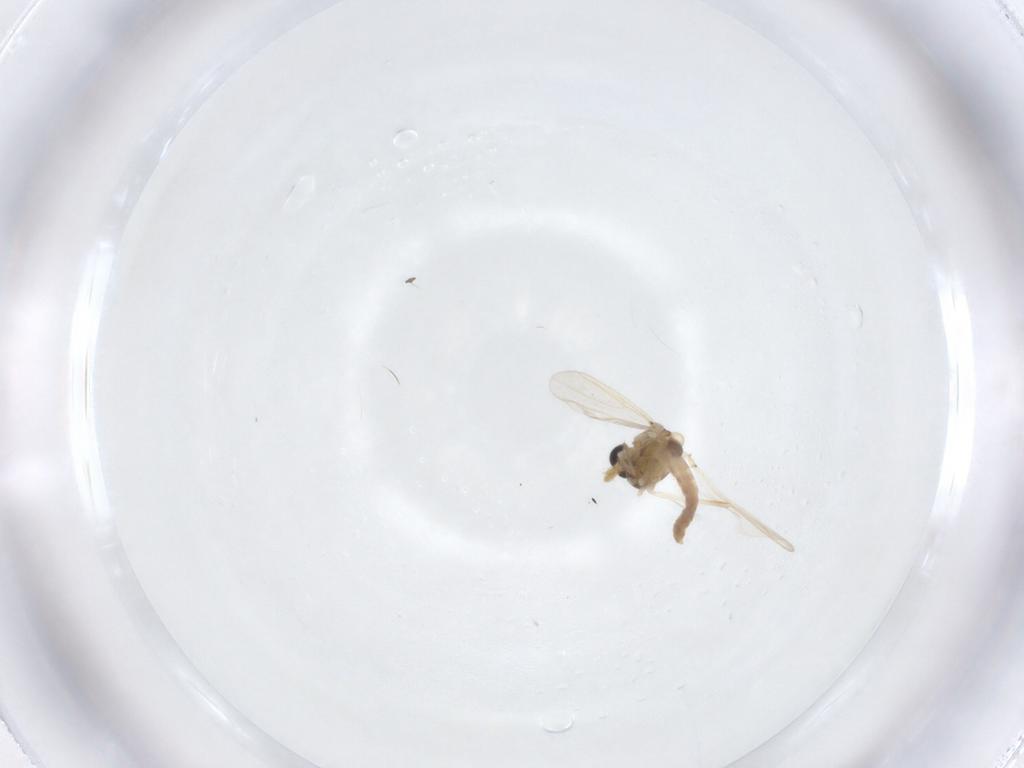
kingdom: Animalia
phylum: Arthropoda
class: Insecta
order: Diptera
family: Chironomidae
